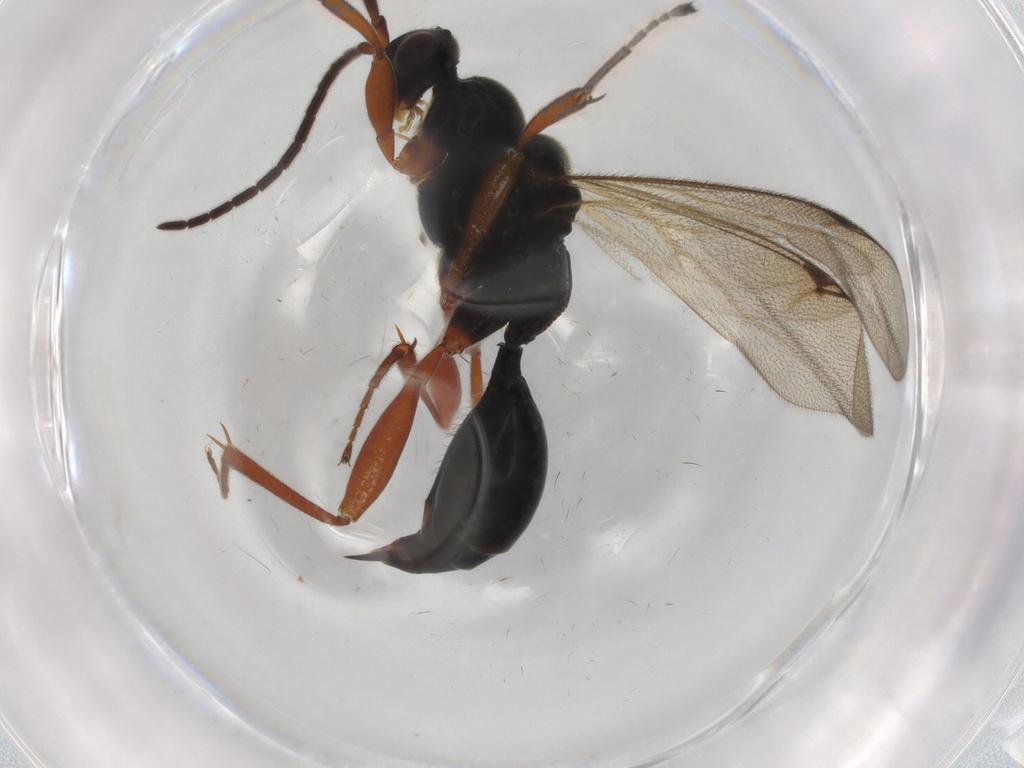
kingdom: Animalia
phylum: Arthropoda
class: Insecta
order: Hymenoptera
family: Proctotrupidae
